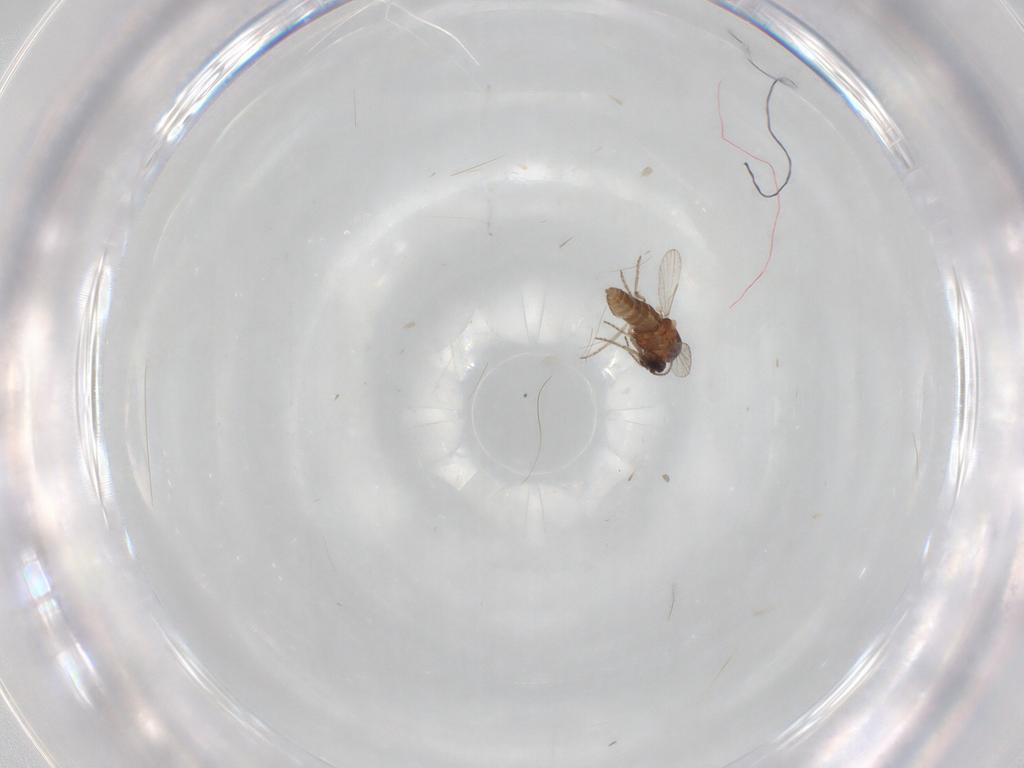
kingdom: Animalia
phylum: Arthropoda
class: Insecta
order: Diptera
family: Ceratopogonidae
